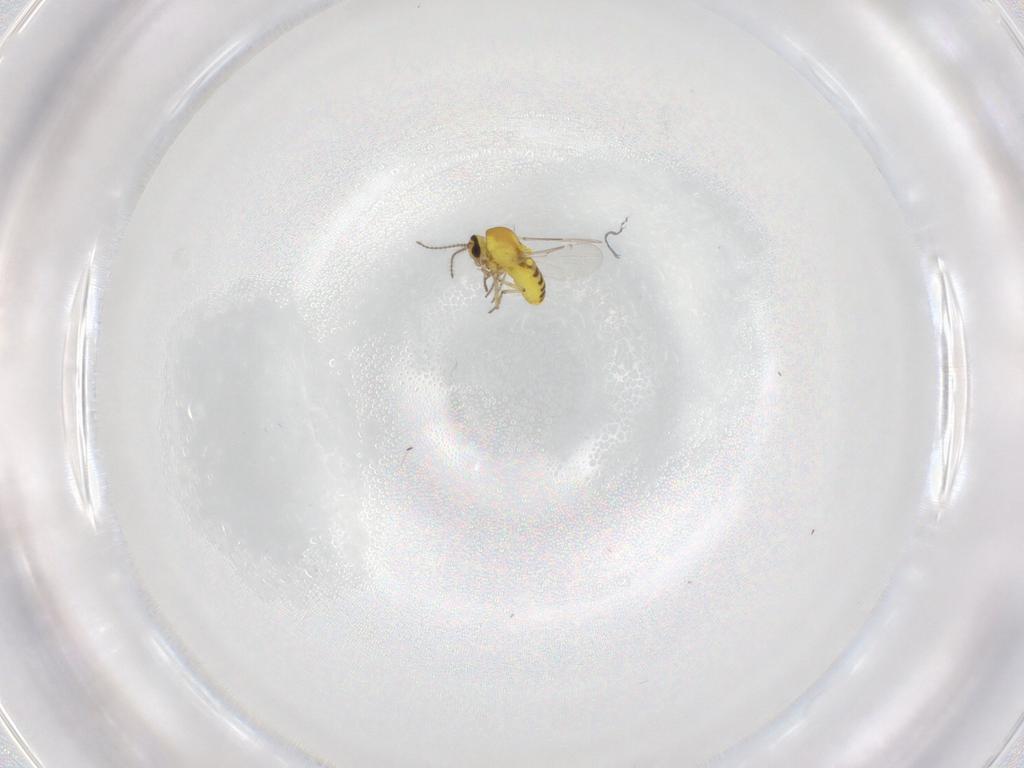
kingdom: Animalia
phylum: Arthropoda
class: Insecta
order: Diptera
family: Ceratopogonidae
